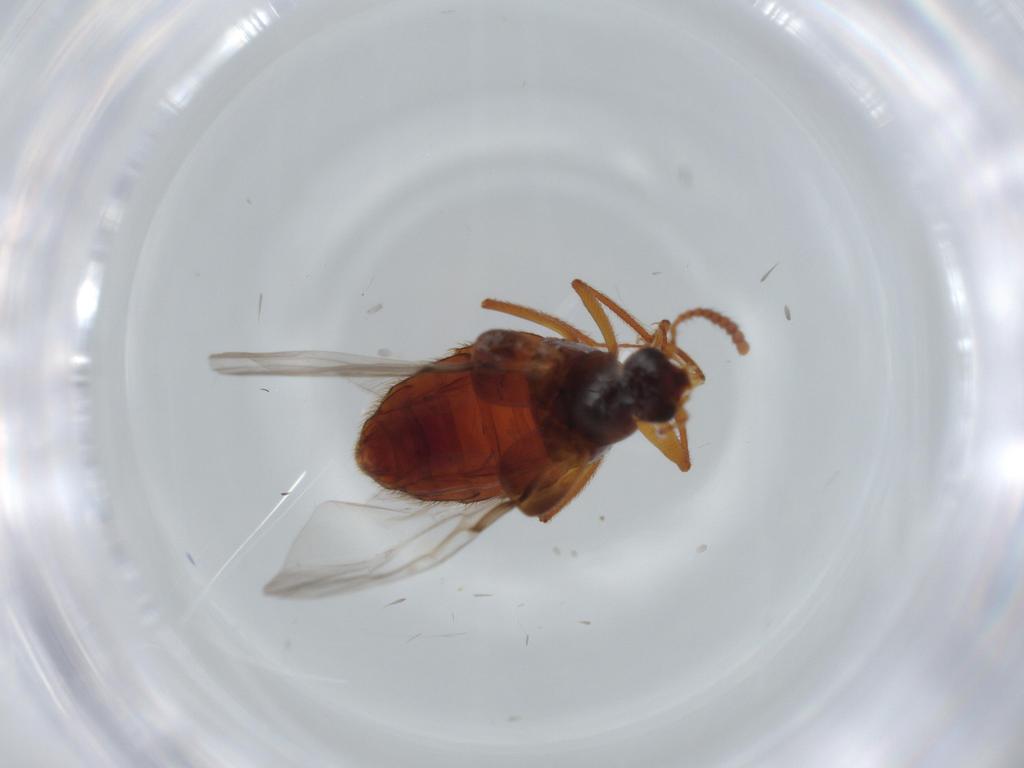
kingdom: Animalia
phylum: Arthropoda
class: Insecta
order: Coleoptera
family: Staphylinidae
